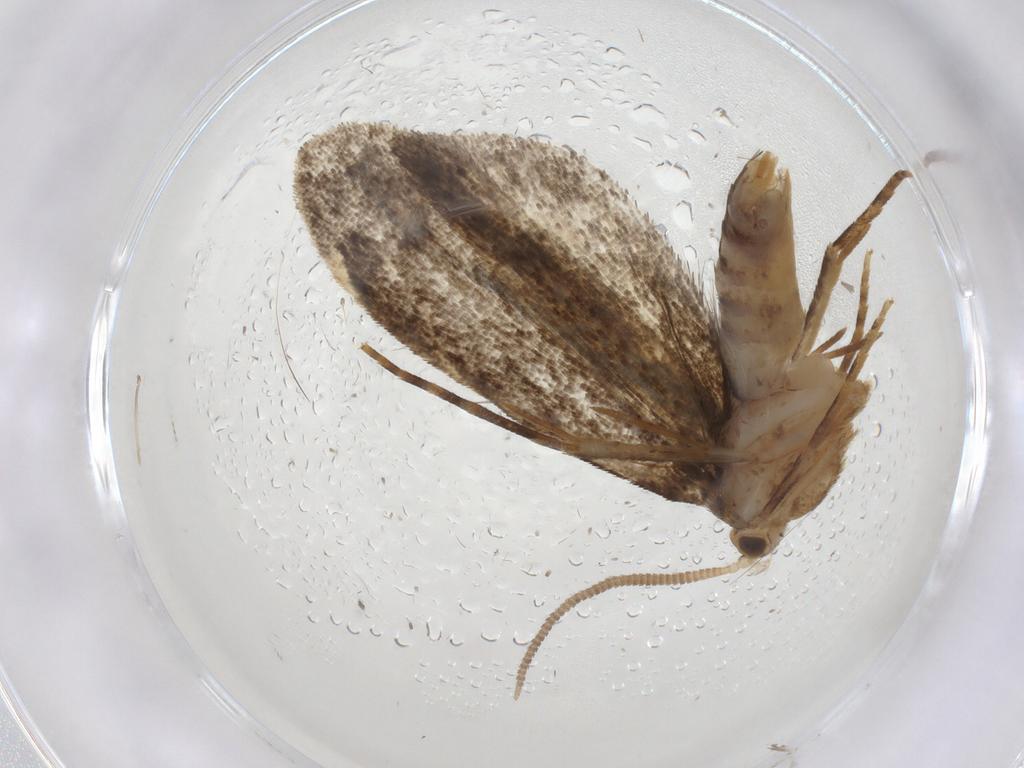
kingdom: Animalia
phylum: Arthropoda
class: Insecta
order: Lepidoptera
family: Dryadaulidae
